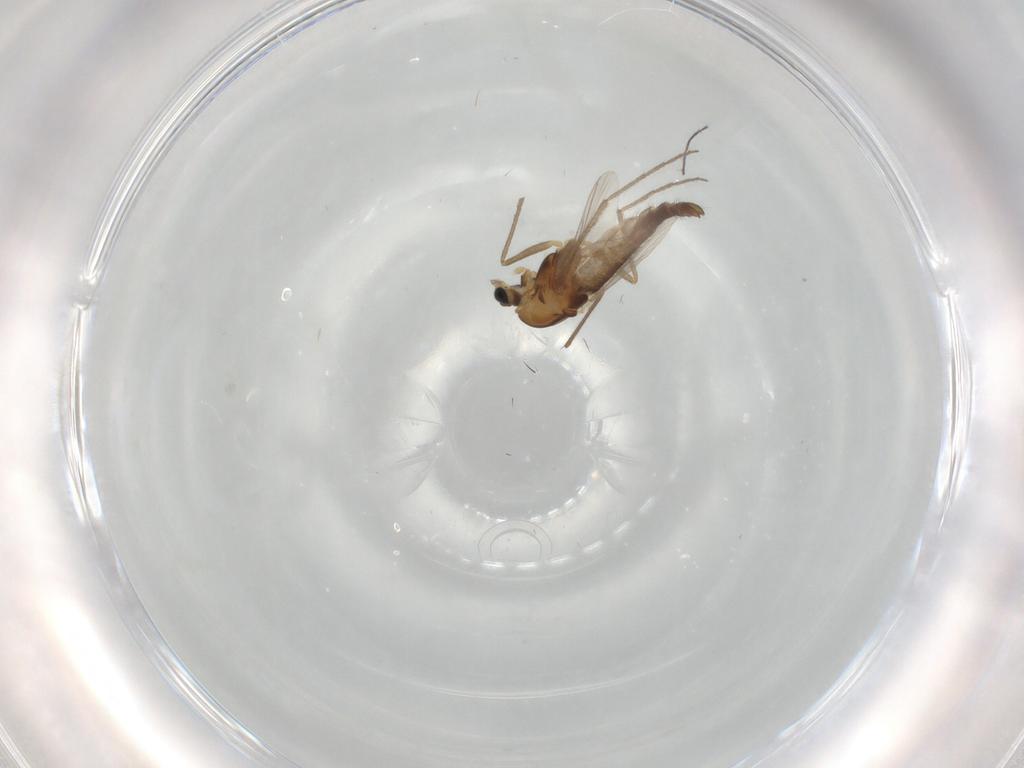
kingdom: Animalia
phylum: Arthropoda
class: Insecta
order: Diptera
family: Chironomidae
